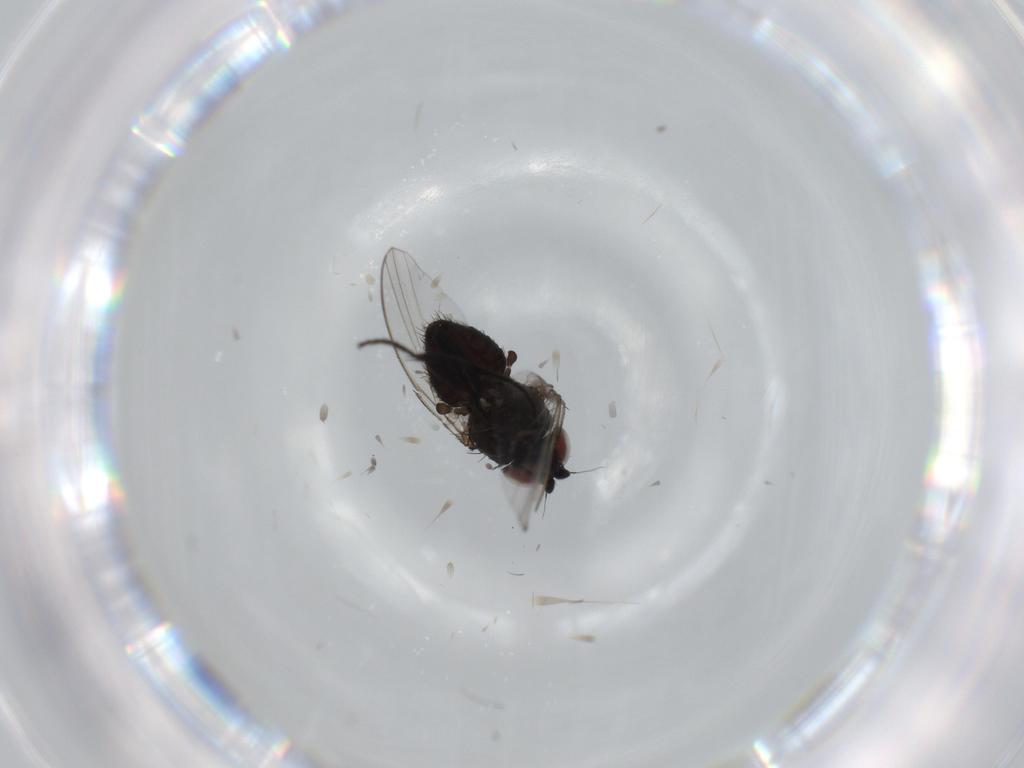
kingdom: Animalia
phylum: Arthropoda
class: Insecta
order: Diptera
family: Milichiidae
